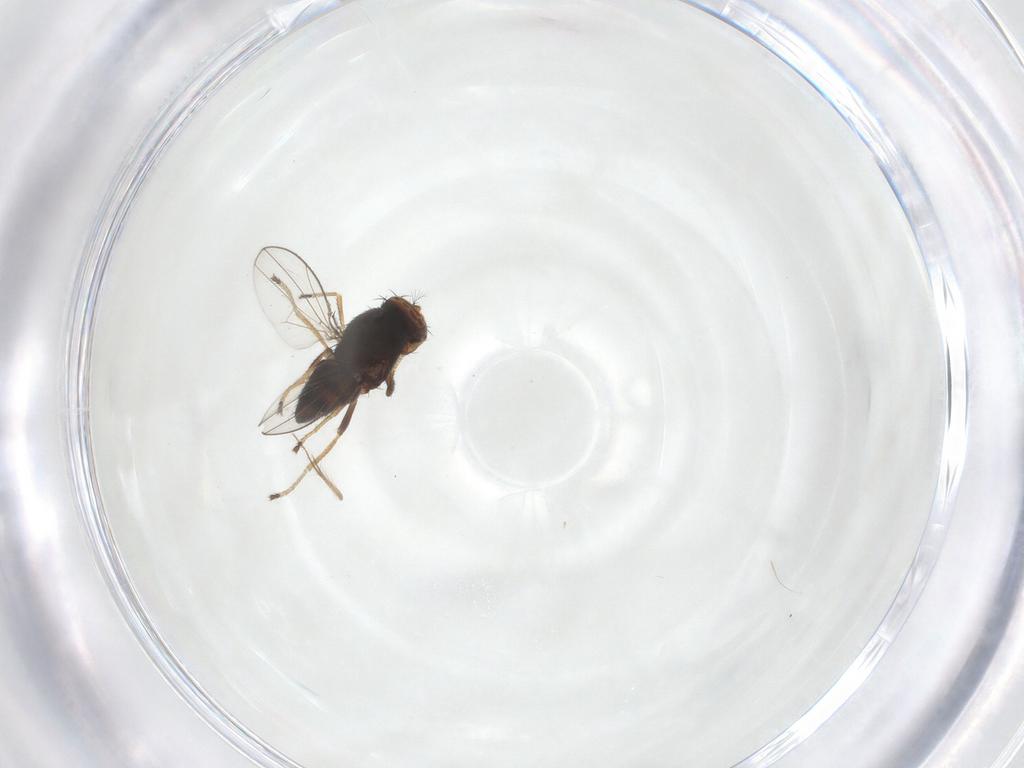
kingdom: Animalia
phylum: Arthropoda
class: Insecta
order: Diptera
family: Ephydridae
